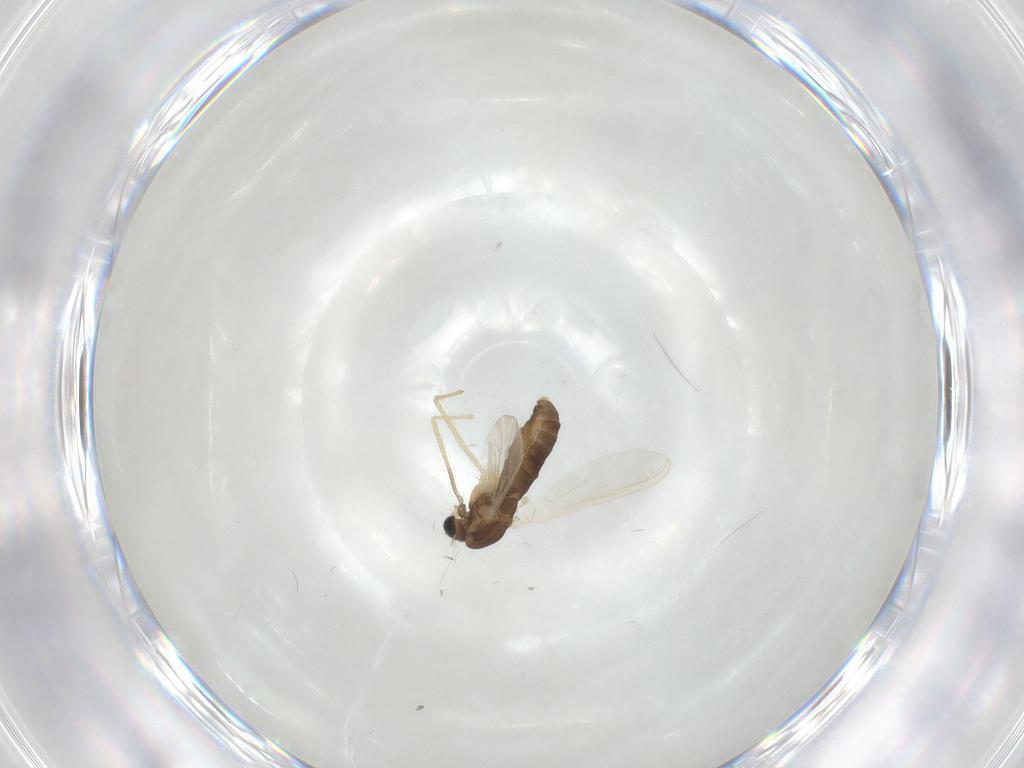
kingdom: Animalia
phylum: Arthropoda
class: Insecta
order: Diptera
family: Chironomidae
